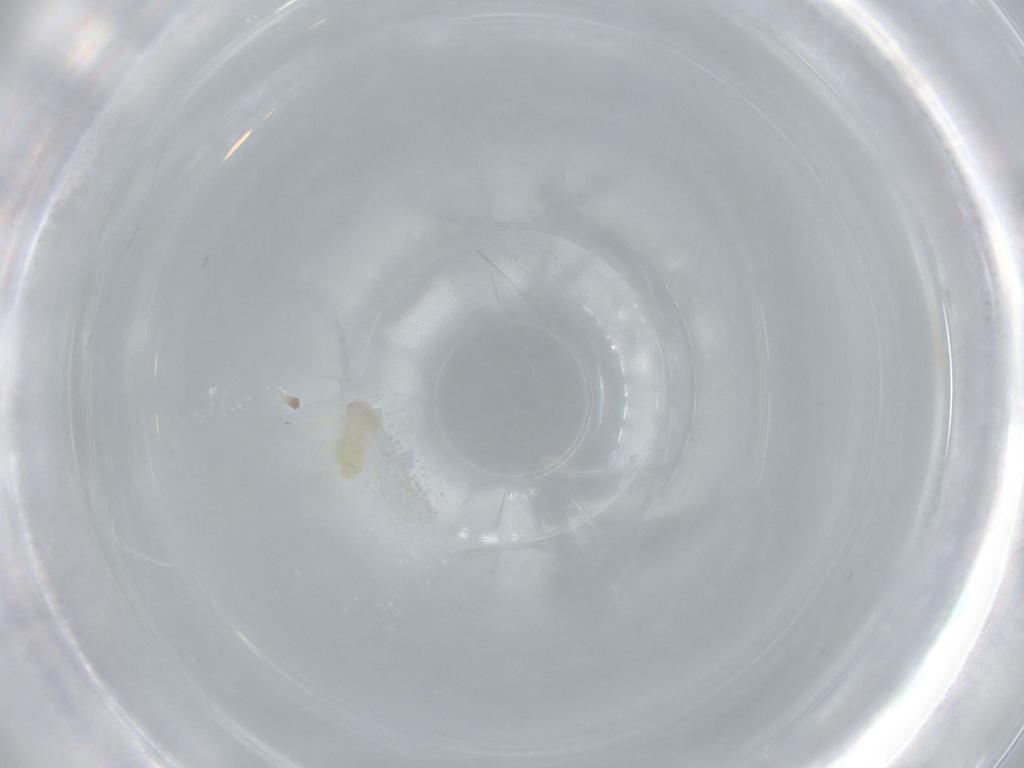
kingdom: Animalia
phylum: Arthropoda
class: Insecta
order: Hemiptera
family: Aleyrodidae
